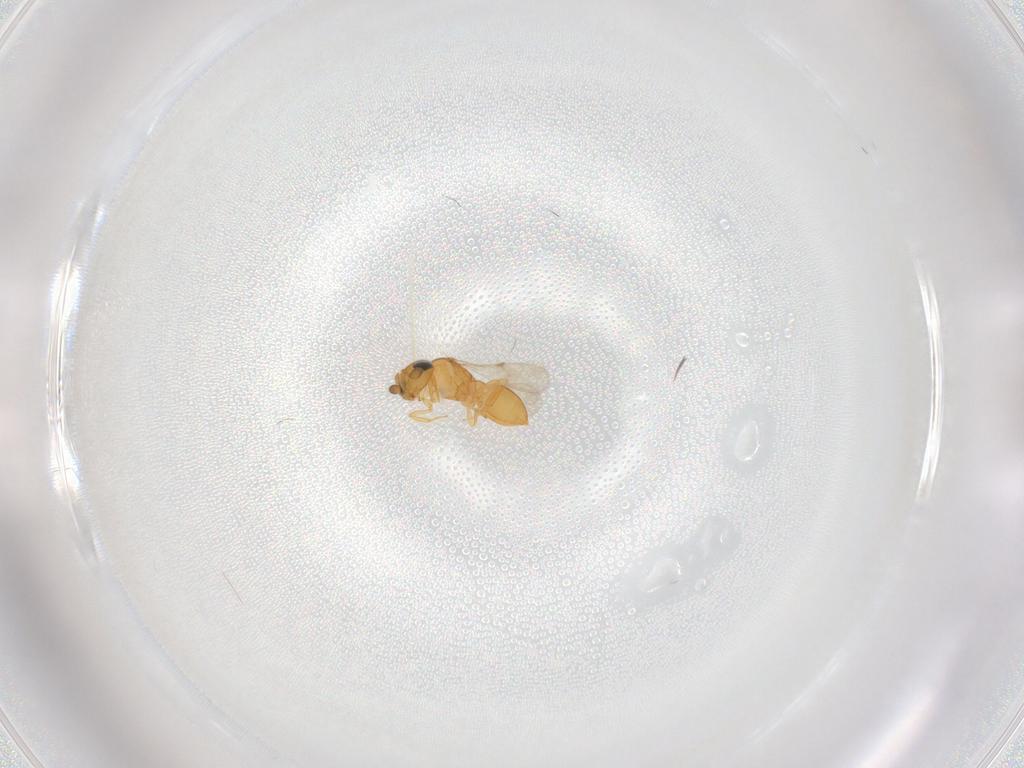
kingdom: Animalia
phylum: Arthropoda
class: Insecta
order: Hymenoptera
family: Scelionidae
